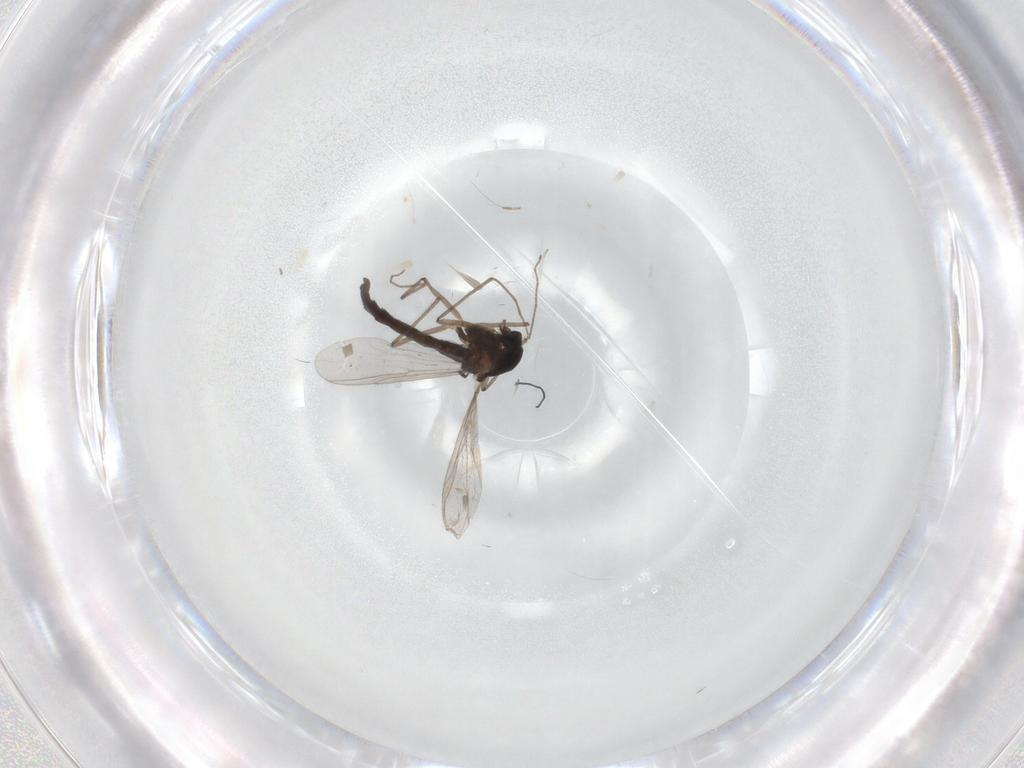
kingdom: Animalia
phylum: Arthropoda
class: Insecta
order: Diptera
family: Chironomidae
